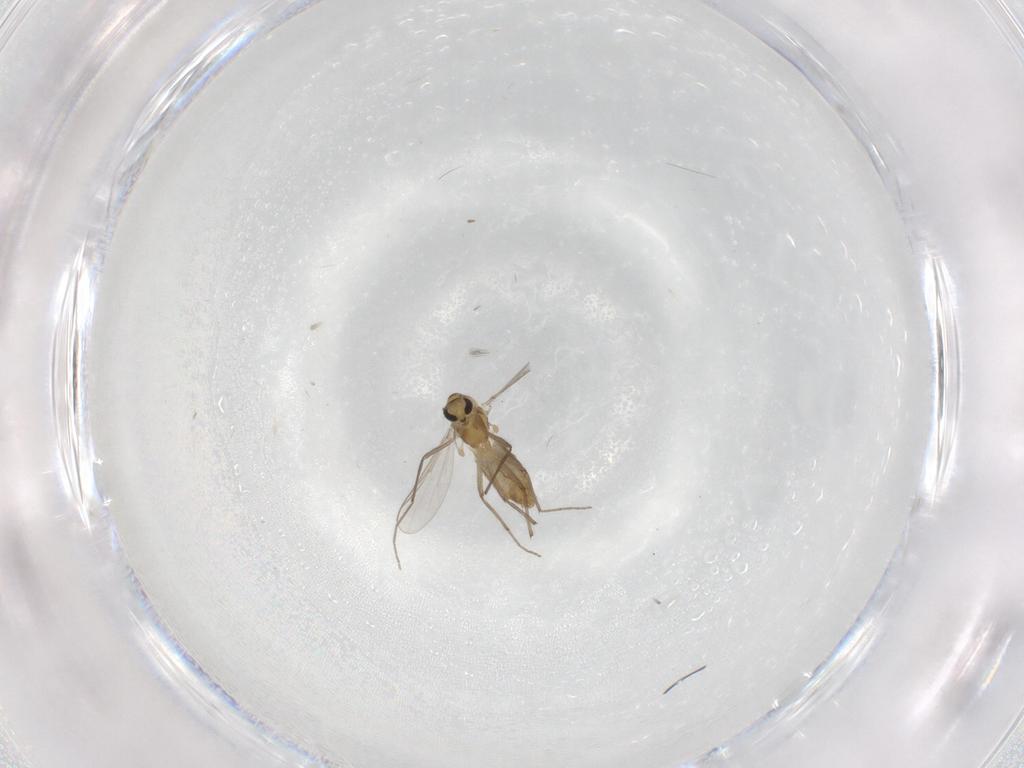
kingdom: Animalia
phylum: Arthropoda
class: Insecta
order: Diptera
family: Chironomidae
